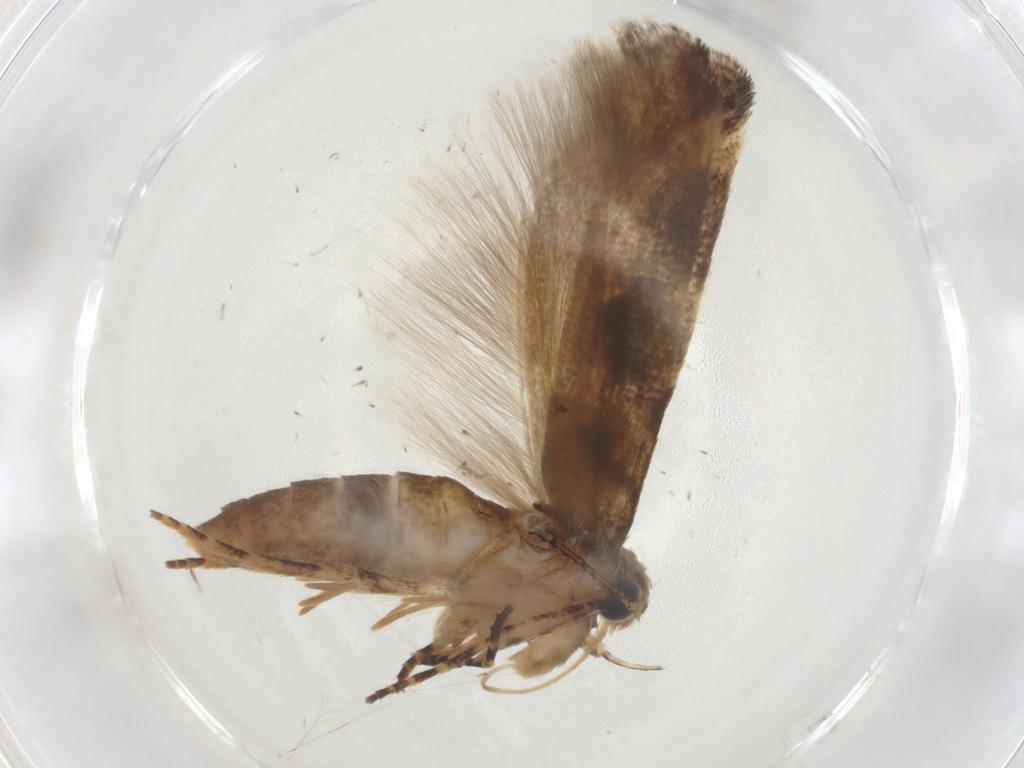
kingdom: Animalia
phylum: Arthropoda
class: Insecta
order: Lepidoptera
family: Gelechiidae
